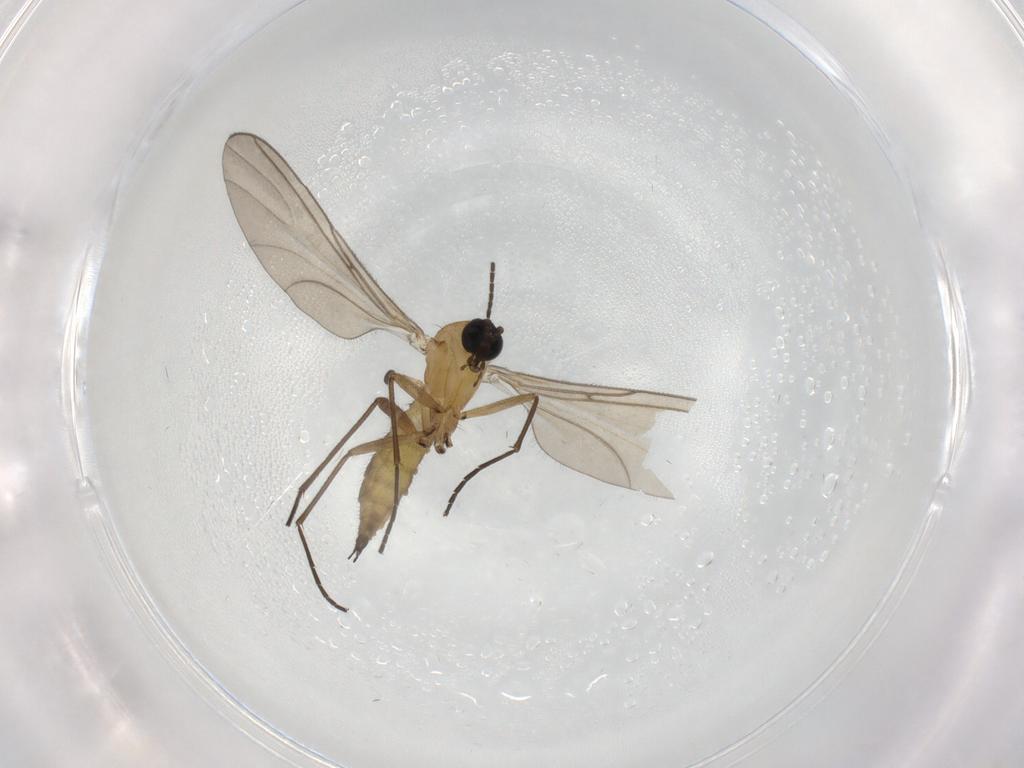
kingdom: Animalia
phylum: Arthropoda
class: Insecta
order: Diptera
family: Sciaridae
